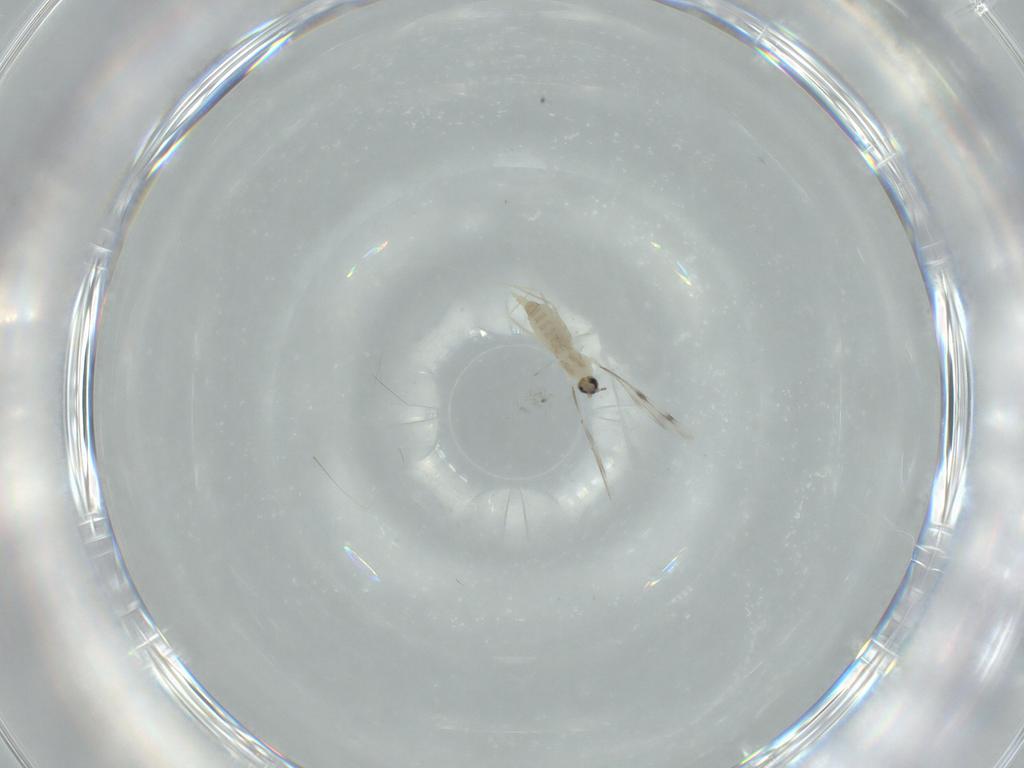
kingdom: Animalia
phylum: Arthropoda
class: Insecta
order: Diptera
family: Cecidomyiidae
